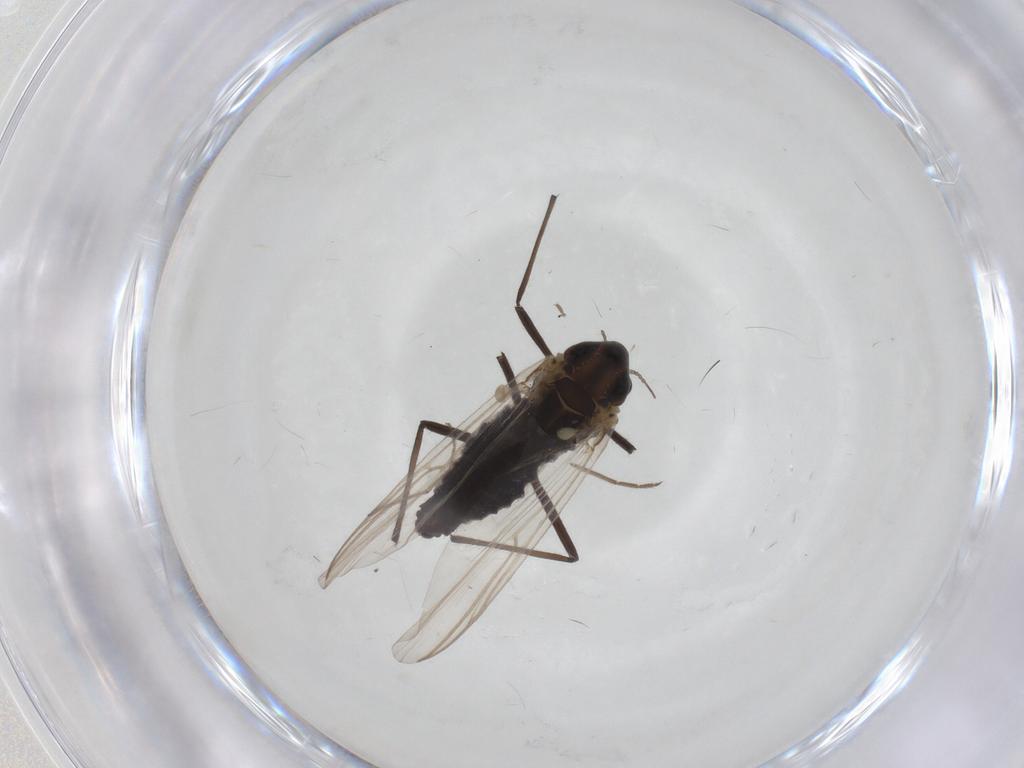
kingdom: Animalia
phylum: Arthropoda
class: Insecta
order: Diptera
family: Chironomidae
